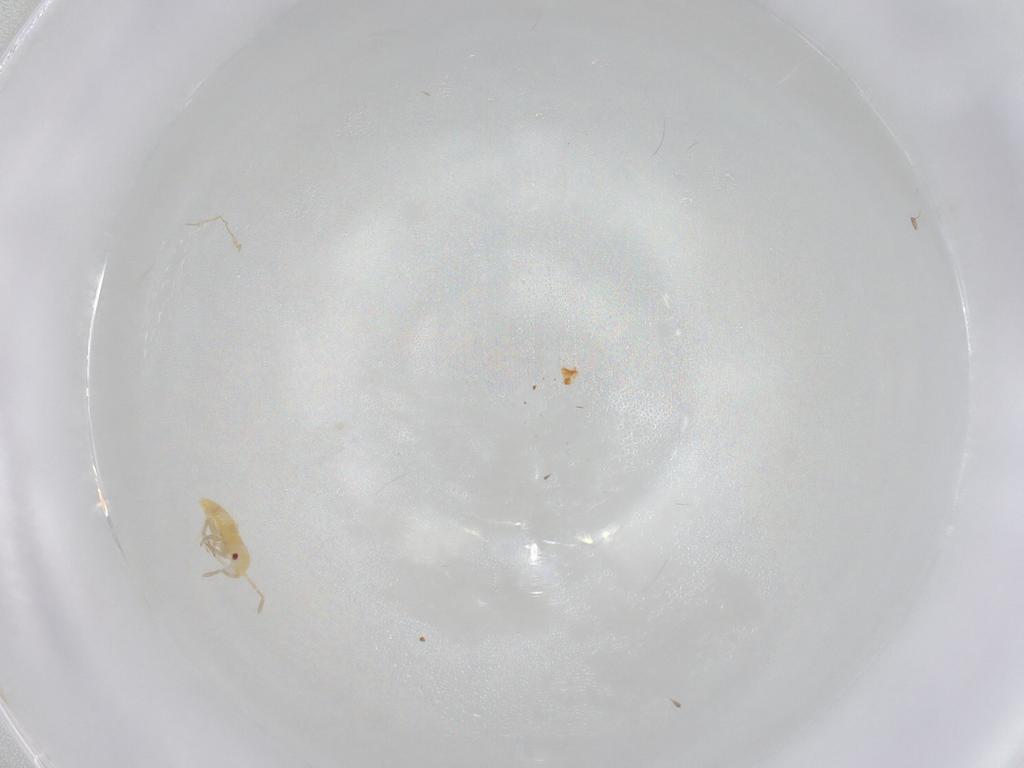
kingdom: Animalia
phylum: Arthropoda
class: Insecta
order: Hemiptera
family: Miridae
